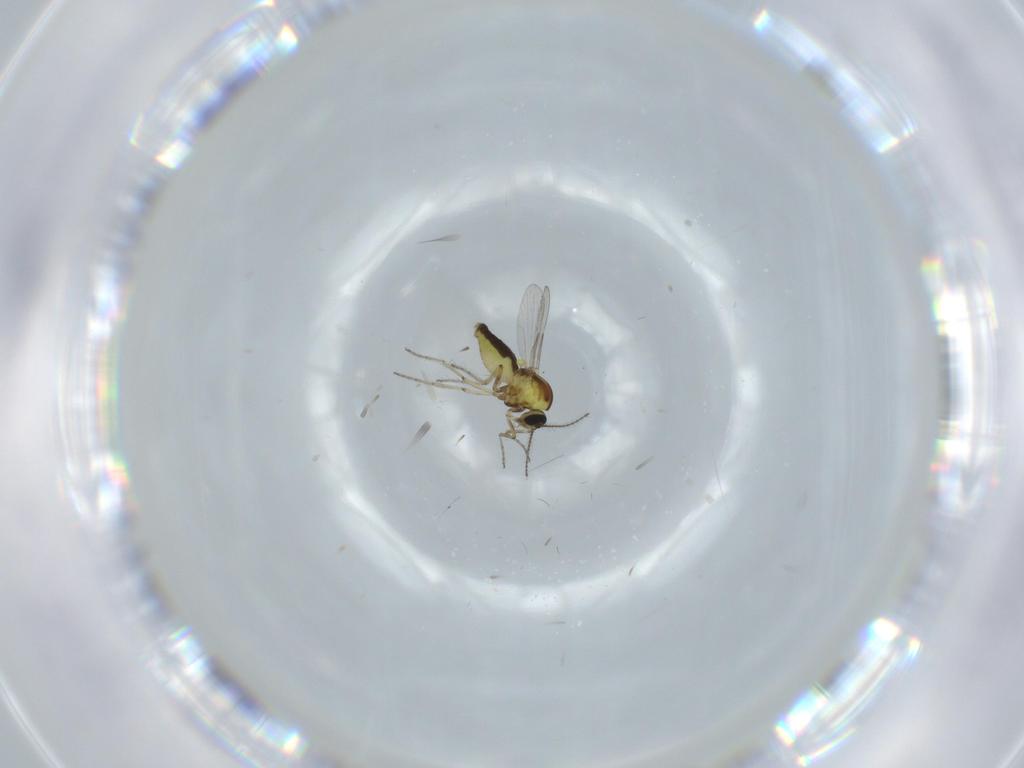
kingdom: Animalia
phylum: Arthropoda
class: Insecta
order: Diptera
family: Ceratopogonidae
